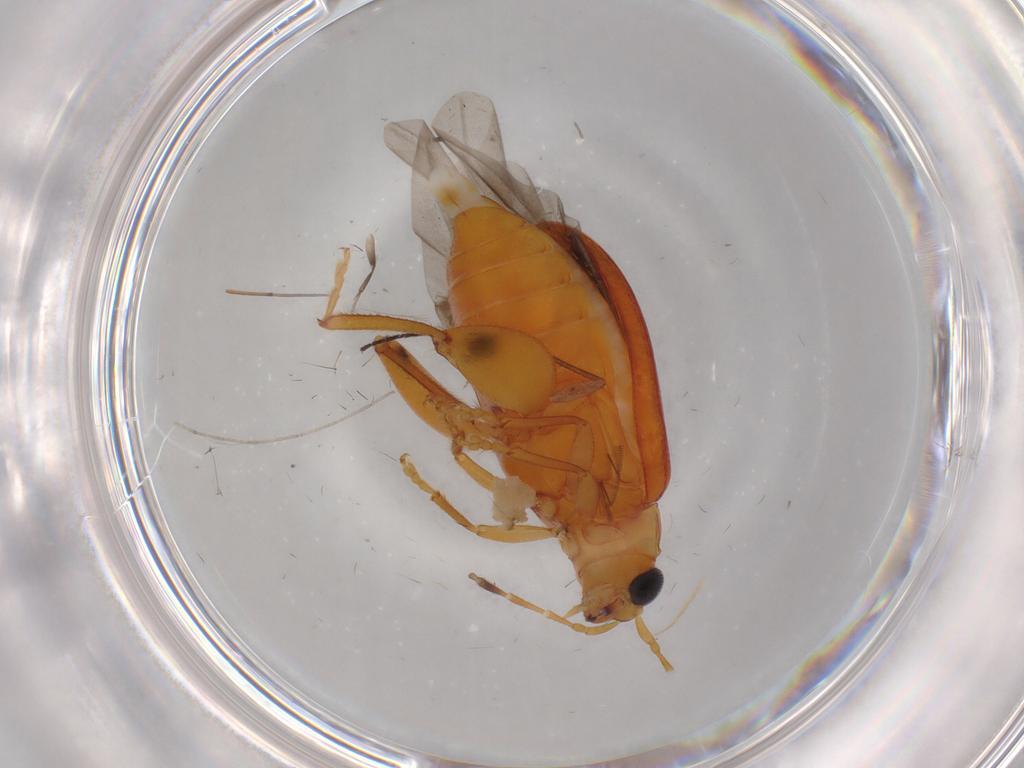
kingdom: Animalia
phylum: Arthropoda
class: Insecta
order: Coleoptera
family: Chrysomelidae
